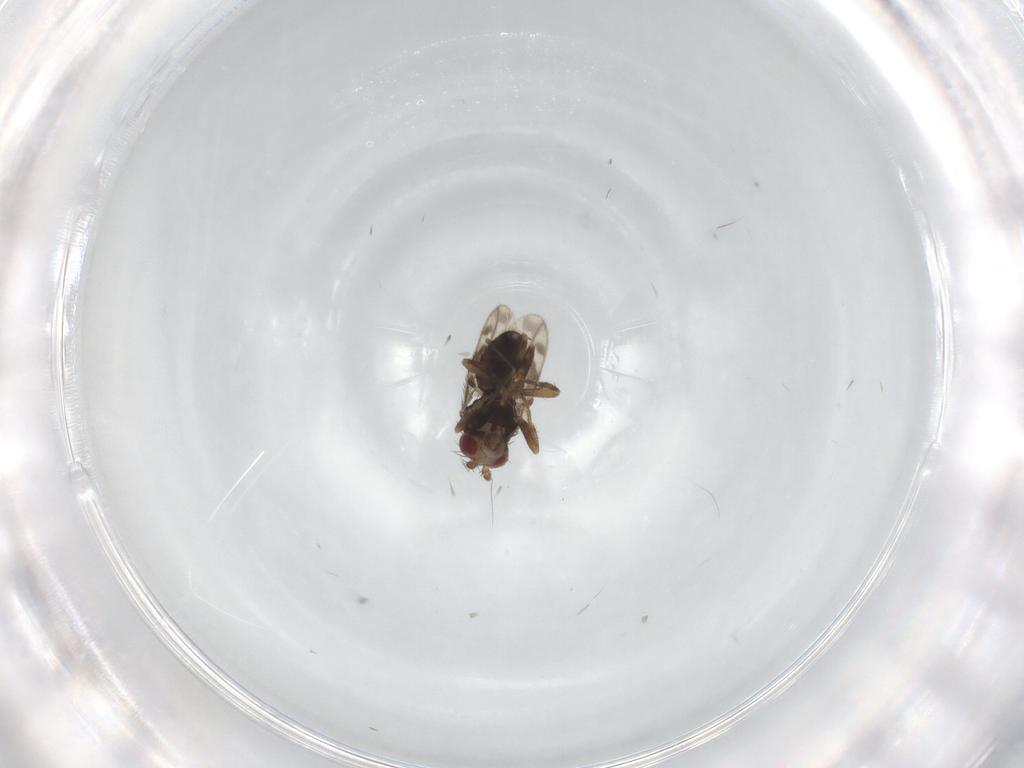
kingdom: Animalia
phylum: Arthropoda
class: Insecta
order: Diptera
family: Sphaeroceridae
